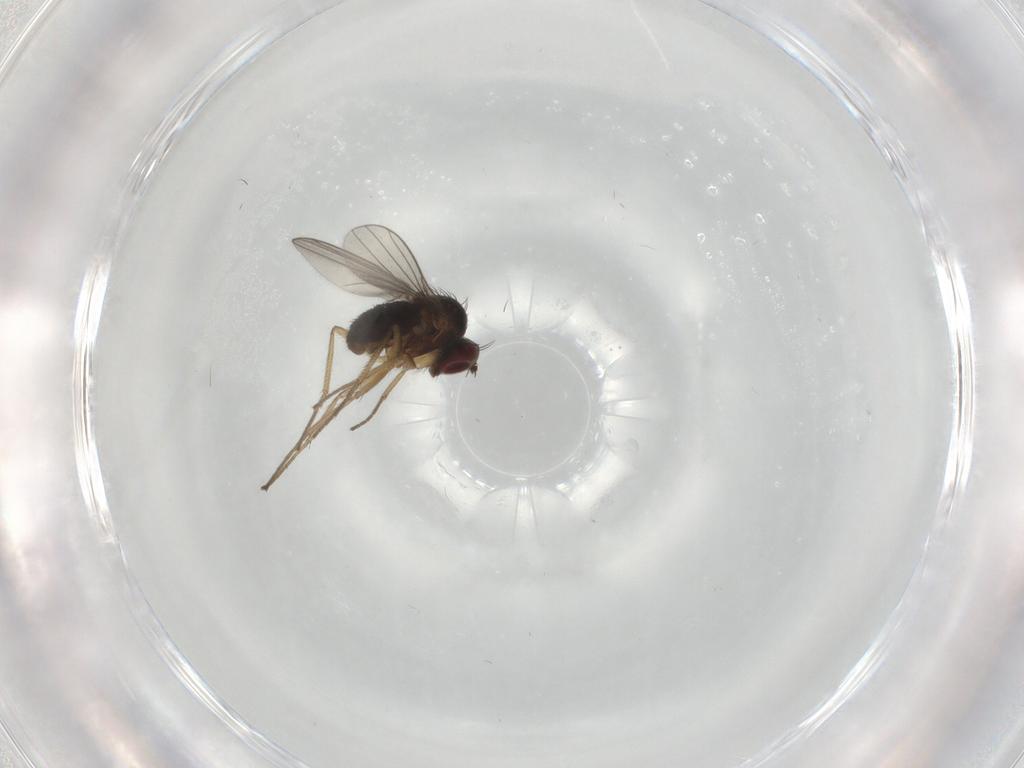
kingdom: Animalia
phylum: Arthropoda
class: Insecta
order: Diptera
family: Dolichopodidae
